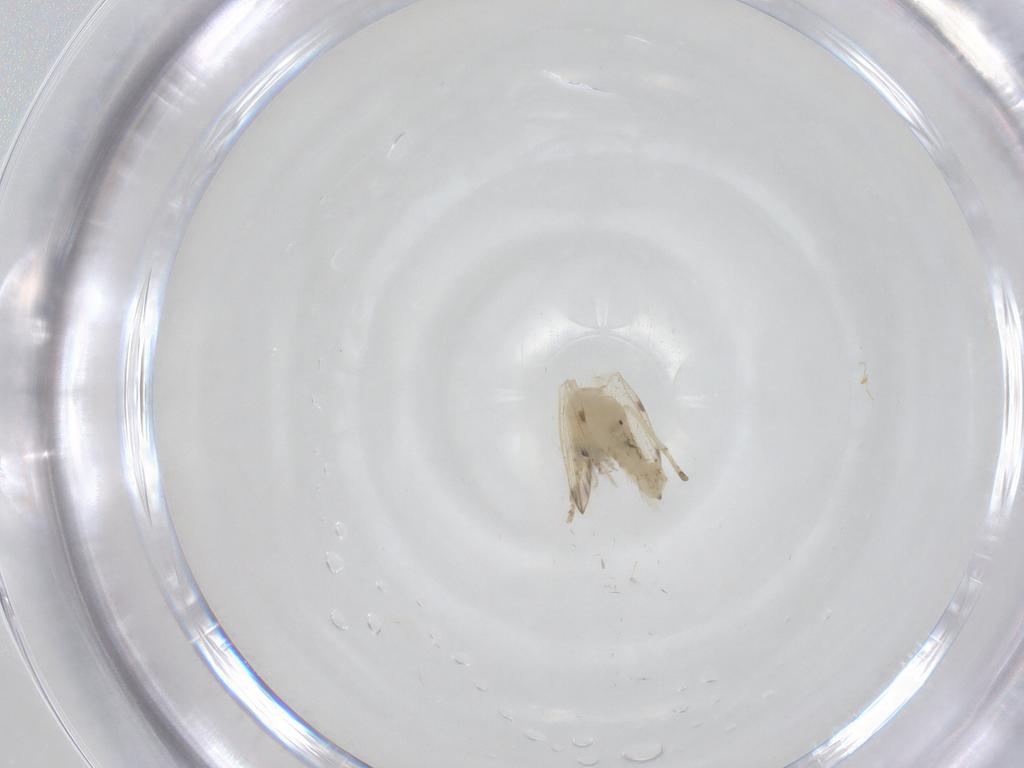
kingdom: Animalia
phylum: Arthropoda
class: Insecta
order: Diptera
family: Psychodidae
